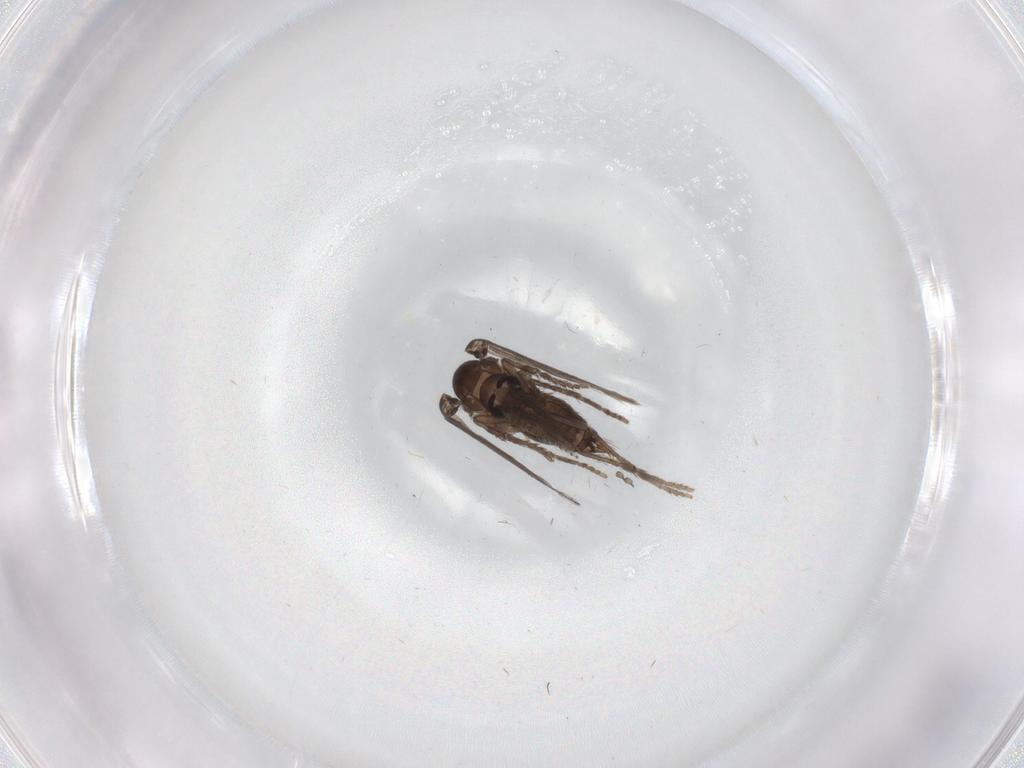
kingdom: Animalia
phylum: Arthropoda
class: Insecta
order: Diptera
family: Psychodidae
